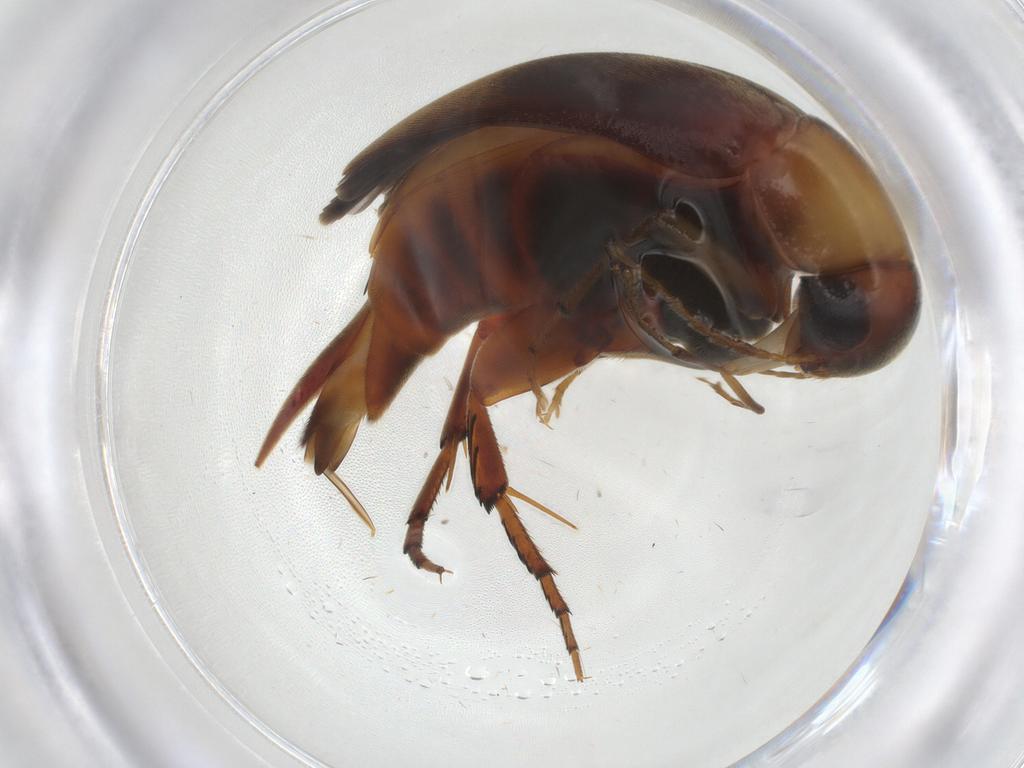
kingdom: Animalia
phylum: Arthropoda
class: Insecta
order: Coleoptera
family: Mordellidae
